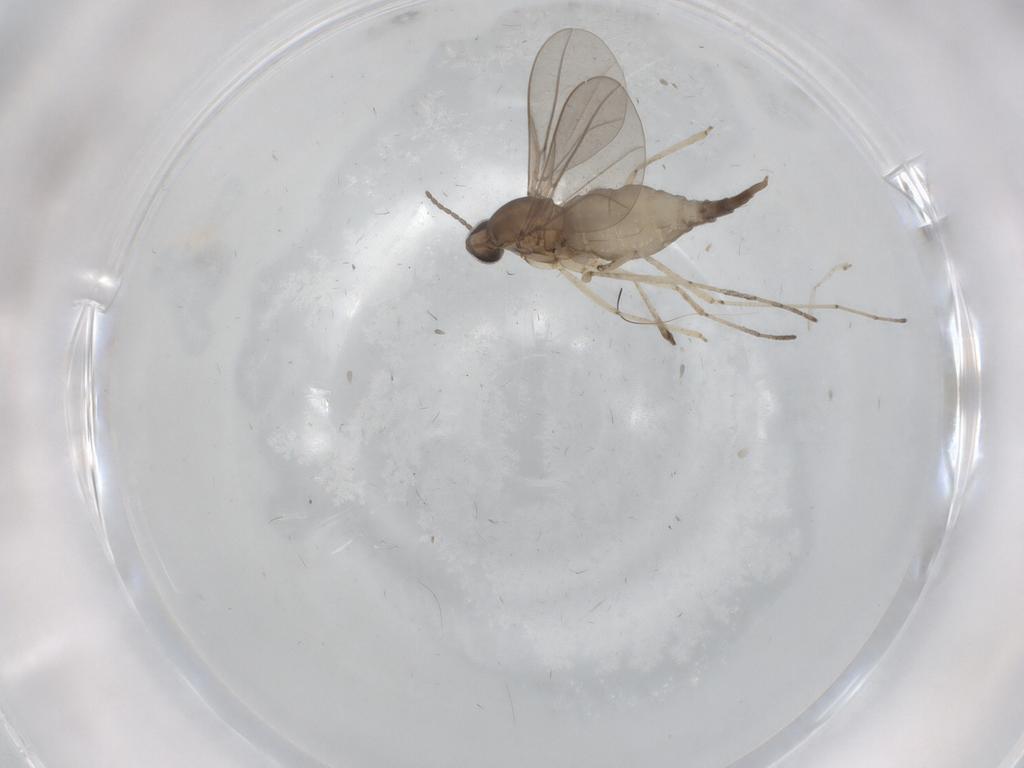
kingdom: Animalia
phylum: Arthropoda
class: Insecta
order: Diptera
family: Cecidomyiidae
